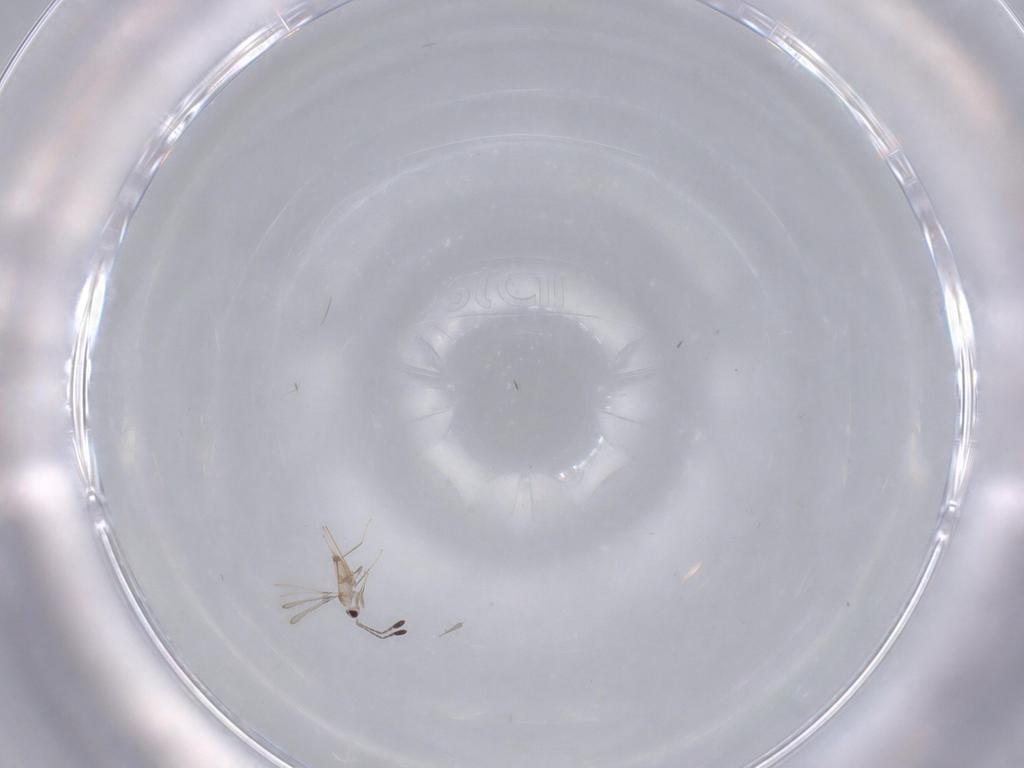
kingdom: Animalia
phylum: Arthropoda
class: Insecta
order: Hymenoptera
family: Mymaridae
